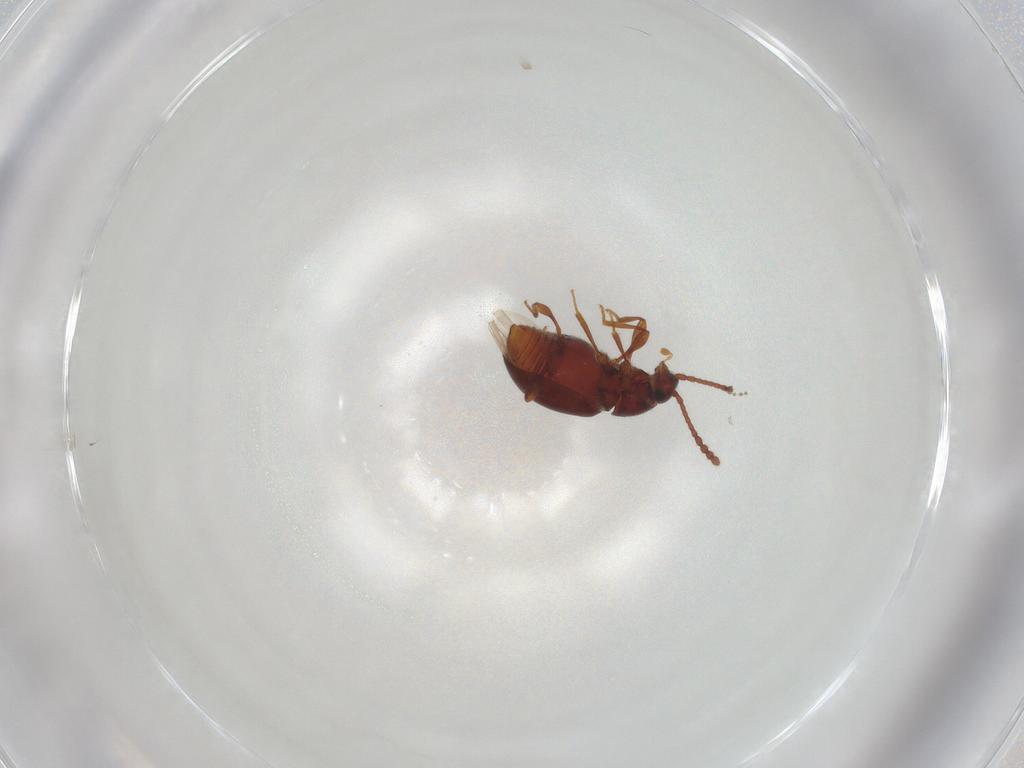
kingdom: Animalia
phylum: Arthropoda
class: Insecta
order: Coleoptera
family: Staphylinidae
